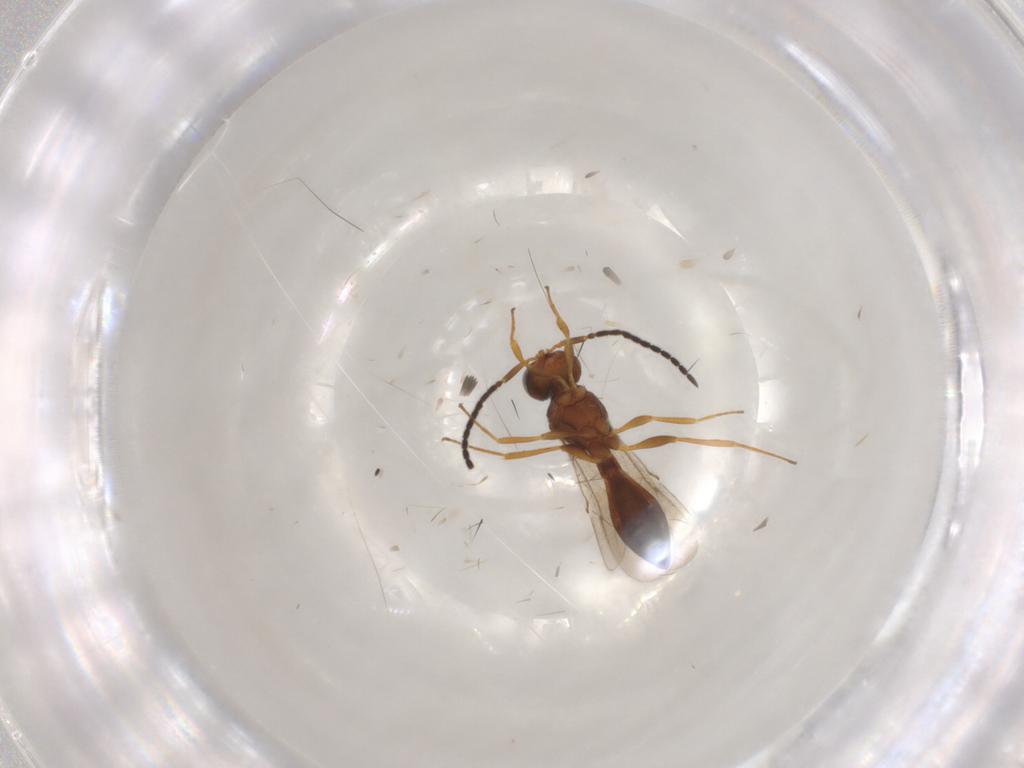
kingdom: Animalia
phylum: Arthropoda
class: Insecta
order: Hymenoptera
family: Scelionidae
